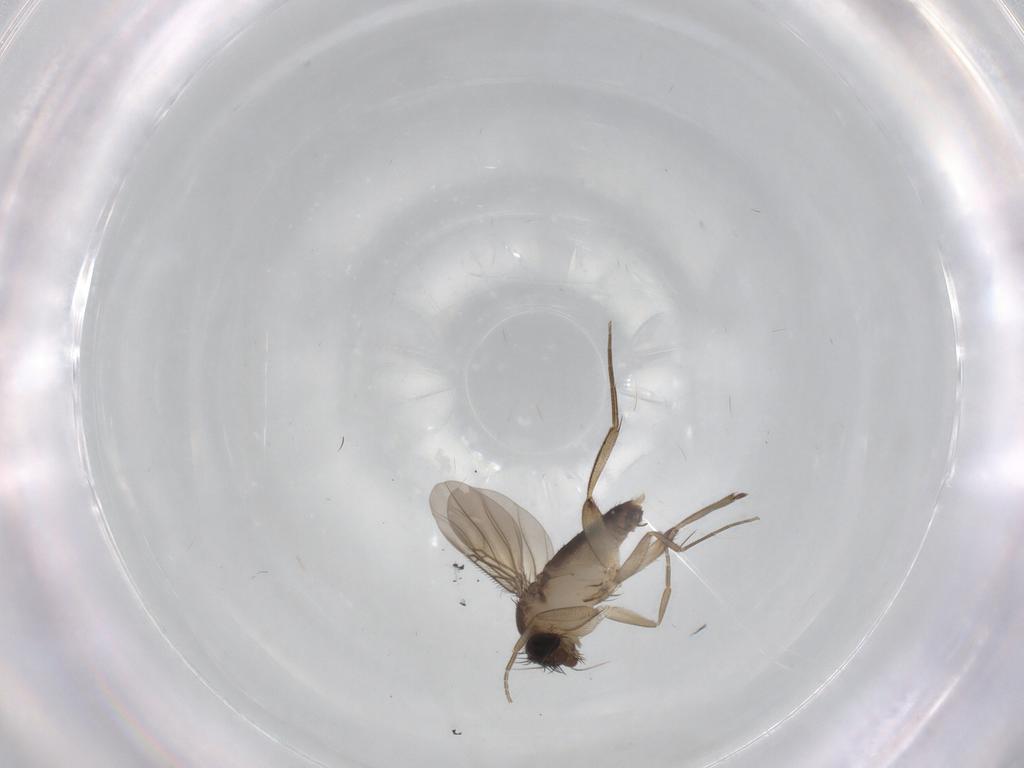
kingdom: Animalia
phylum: Arthropoda
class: Insecta
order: Diptera
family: Phoridae
